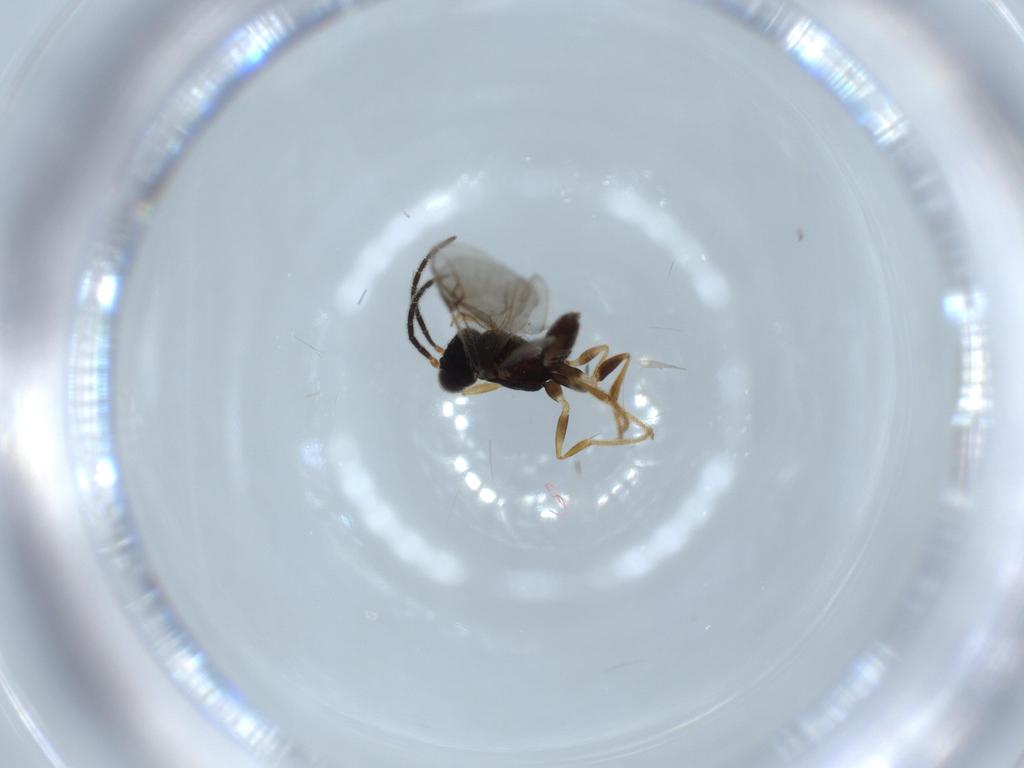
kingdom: Animalia
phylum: Arthropoda
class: Insecta
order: Hymenoptera
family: Dryinidae
